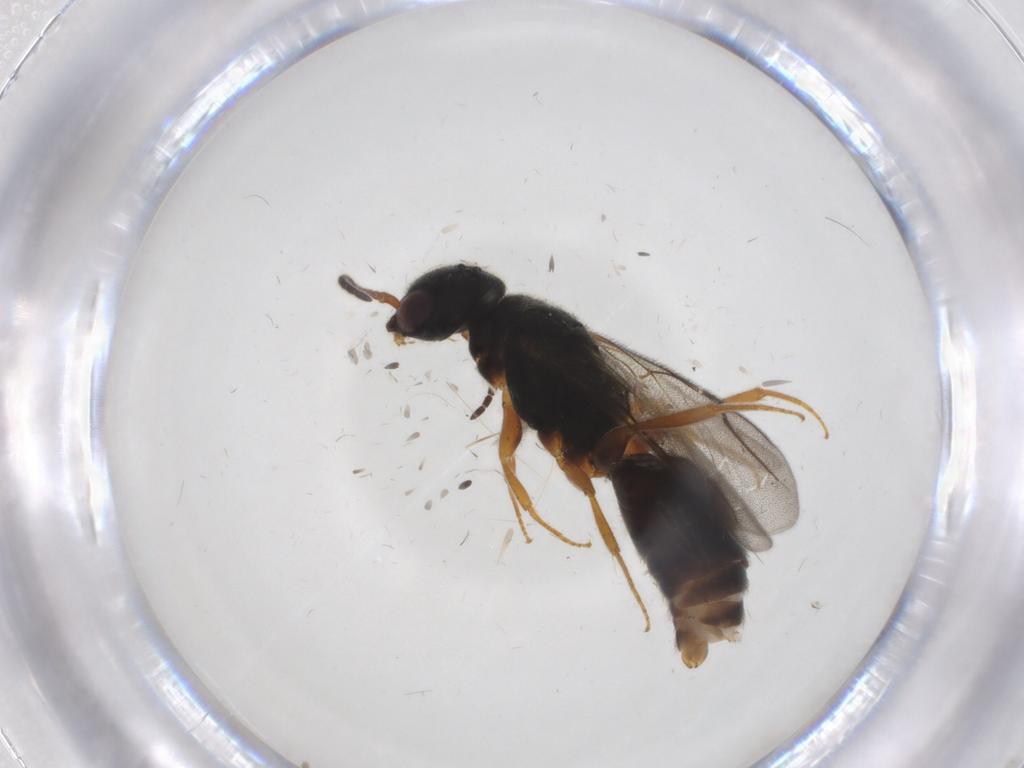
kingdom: Animalia
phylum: Arthropoda
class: Insecta
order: Hymenoptera
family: Bethylidae
